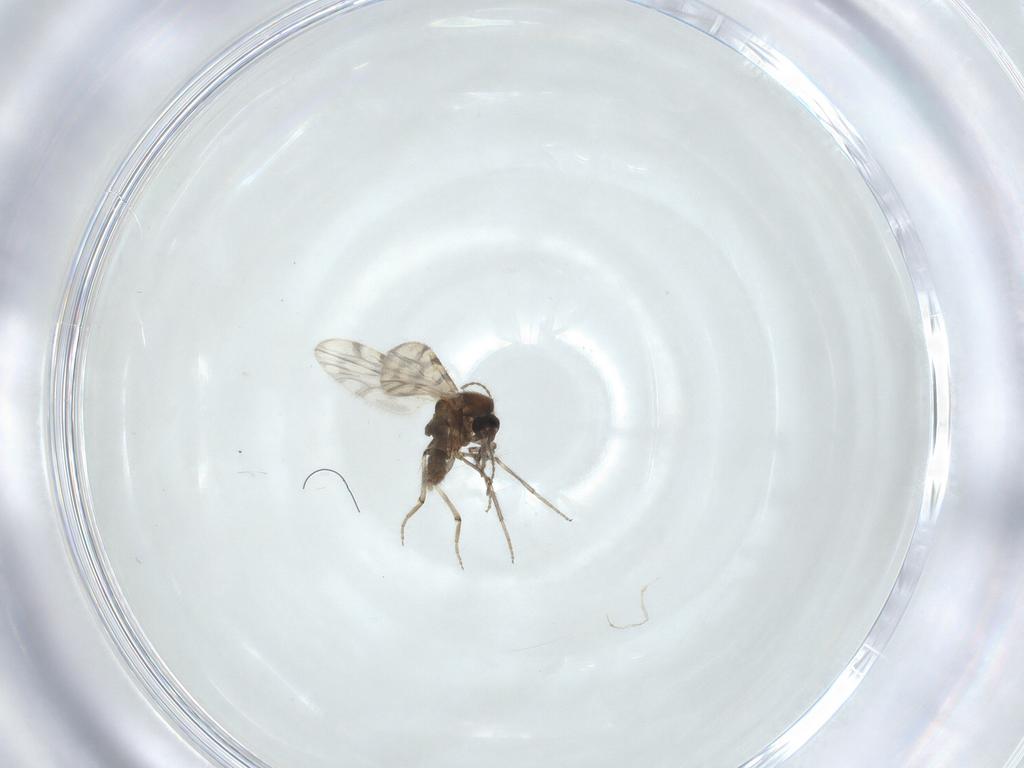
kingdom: Animalia
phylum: Arthropoda
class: Insecta
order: Diptera
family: Ceratopogonidae
